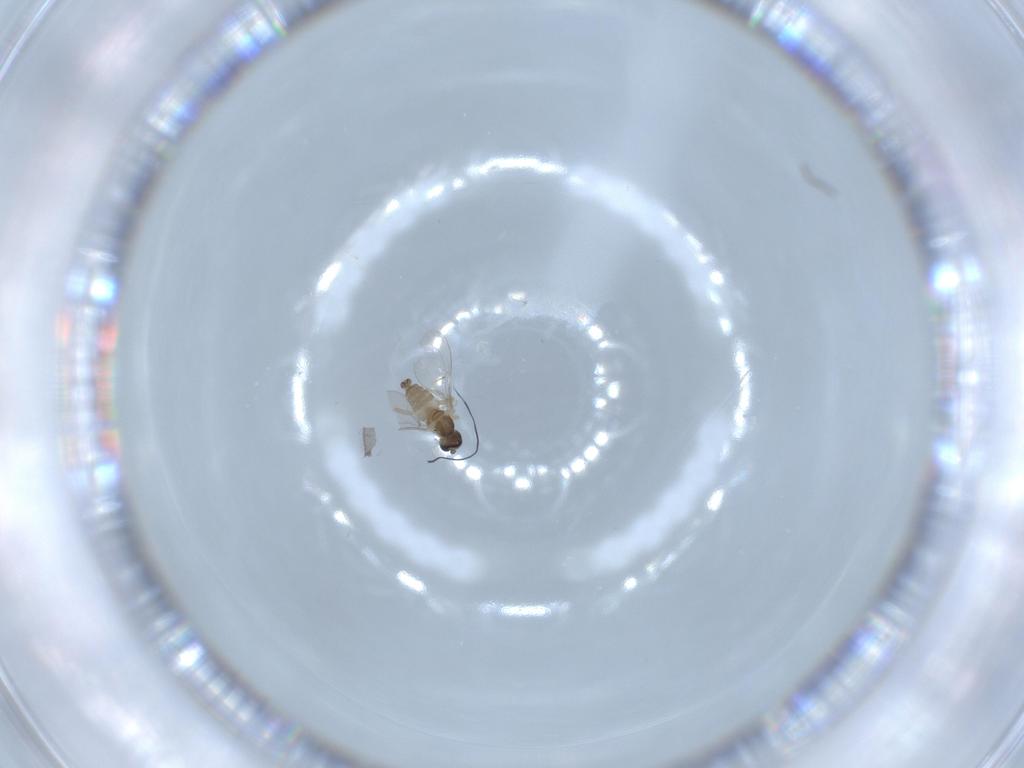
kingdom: Animalia
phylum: Arthropoda
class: Insecta
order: Diptera
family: Cecidomyiidae
